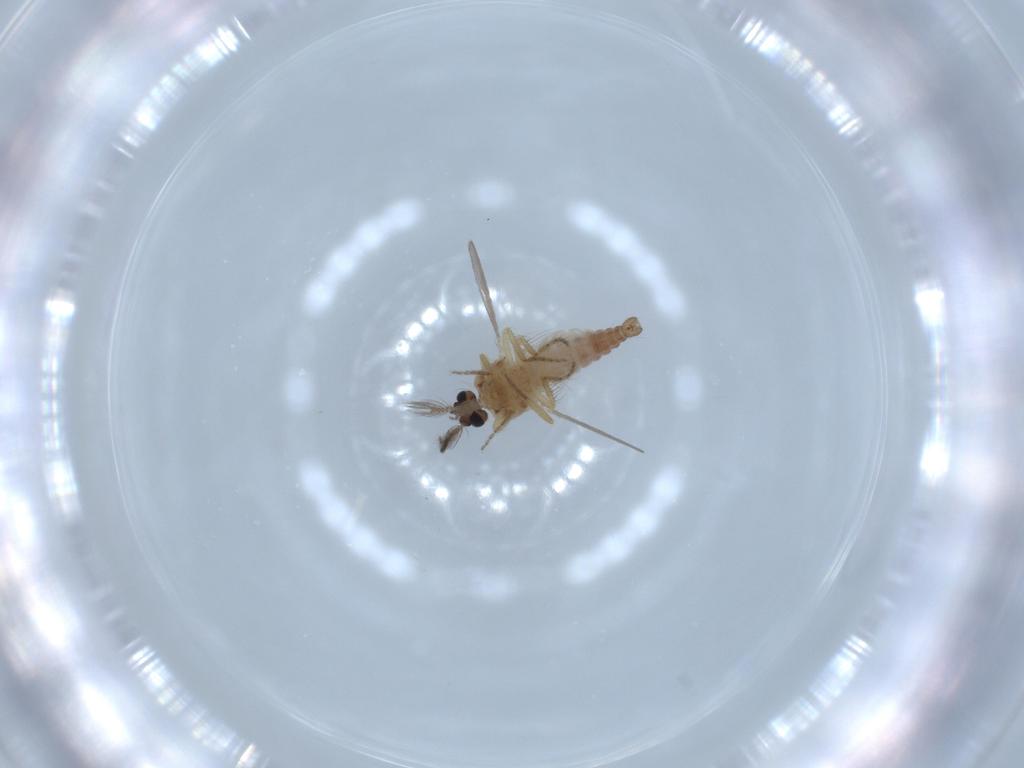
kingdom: Animalia
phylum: Arthropoda
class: Insecta
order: Diptera
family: Ceratopogonidae
